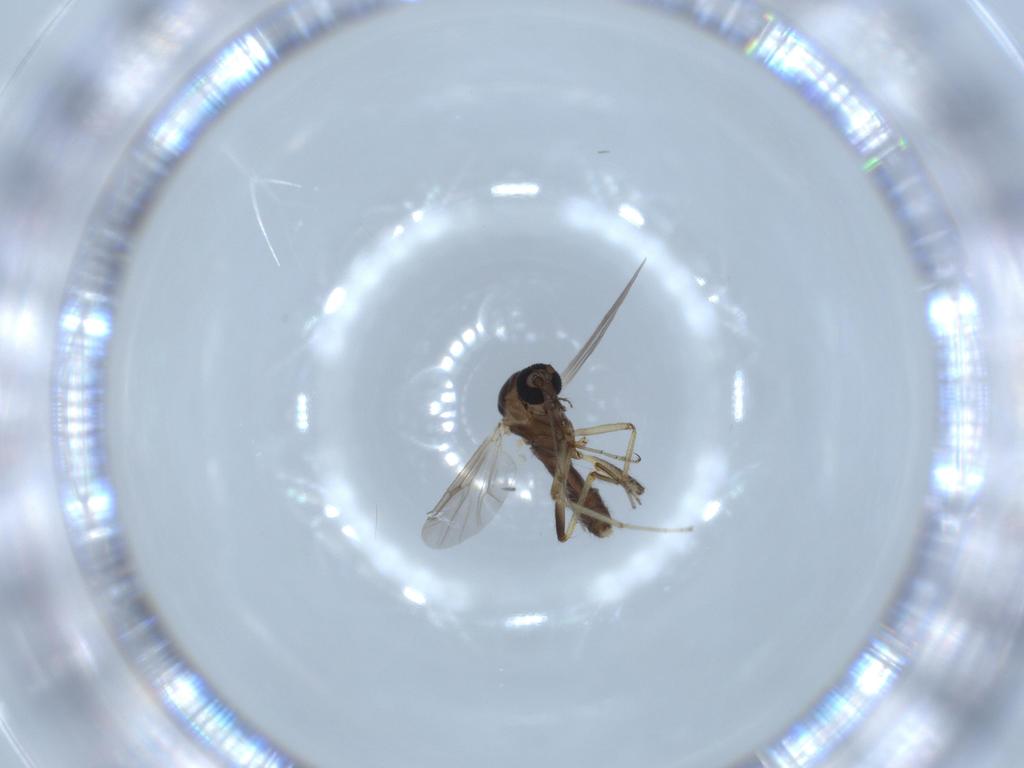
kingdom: Animalia
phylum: Arthropoda
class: Insecta
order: Diptera
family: Ceratopogonidae
